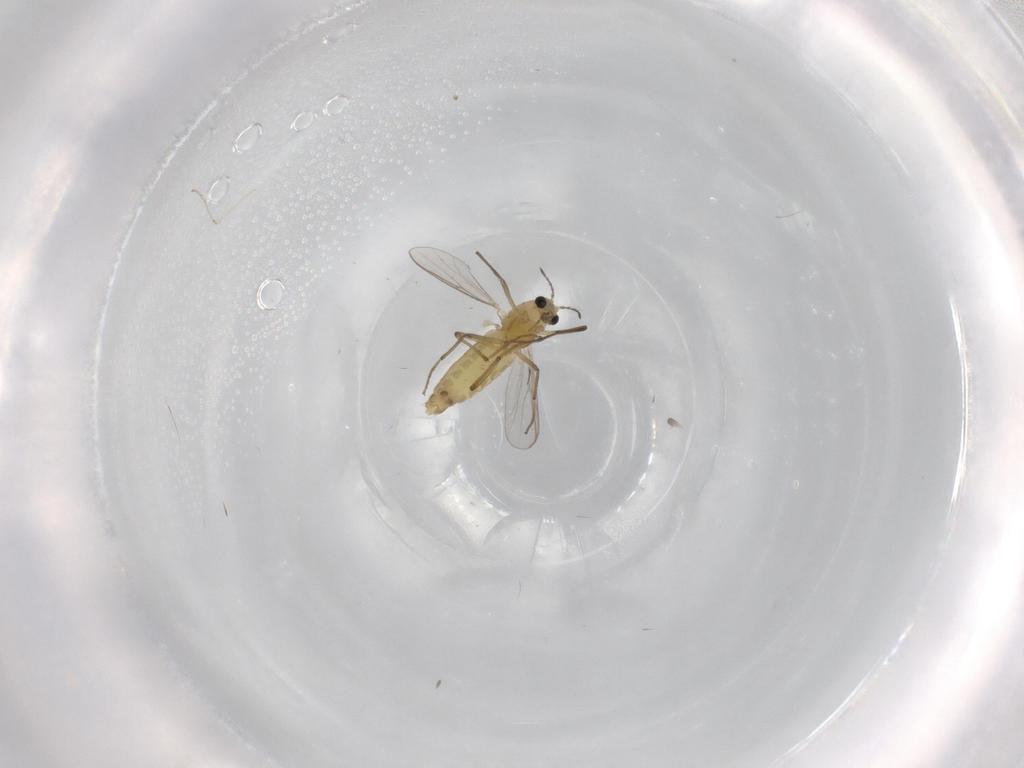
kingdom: Animalia
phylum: Arthropoda
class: Insecta
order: Diptera
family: Chironomidae
